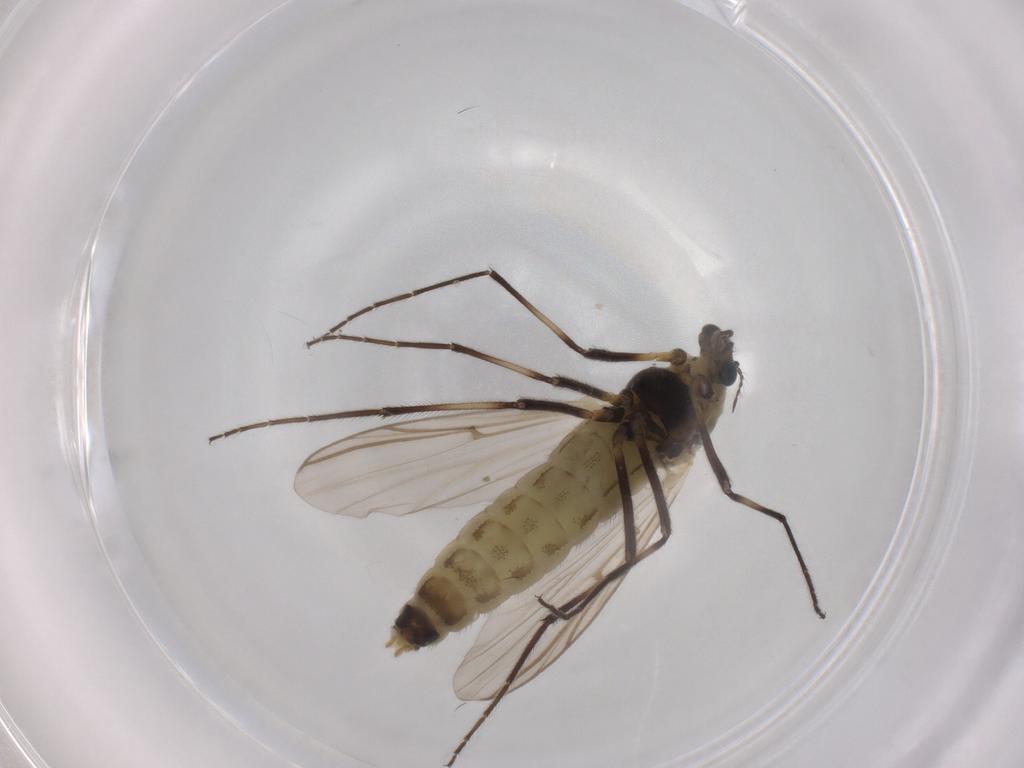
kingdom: Animalia
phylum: Arthropoda
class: Insecta
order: Diptera
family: Chironomidae
